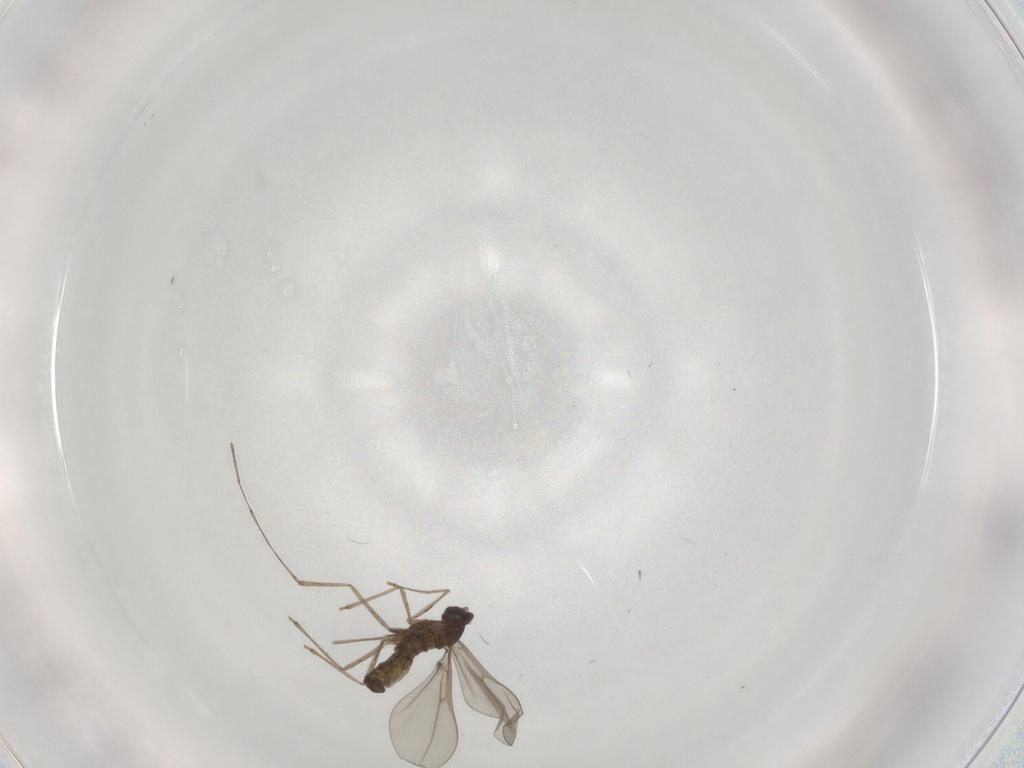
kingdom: Animalia
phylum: Arthropoda
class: Insecta
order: Diptera
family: Cecidomyiidae
